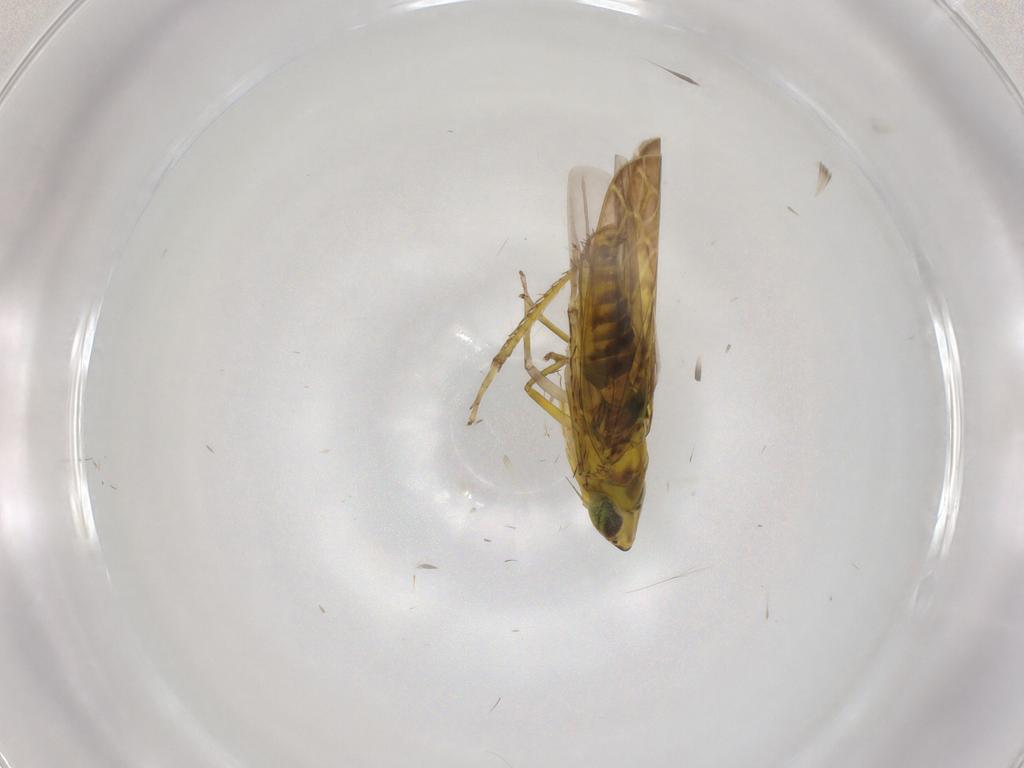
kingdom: Animalia
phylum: Arthropoda
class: Insecta
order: Hemiptera
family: Cicadellidae
